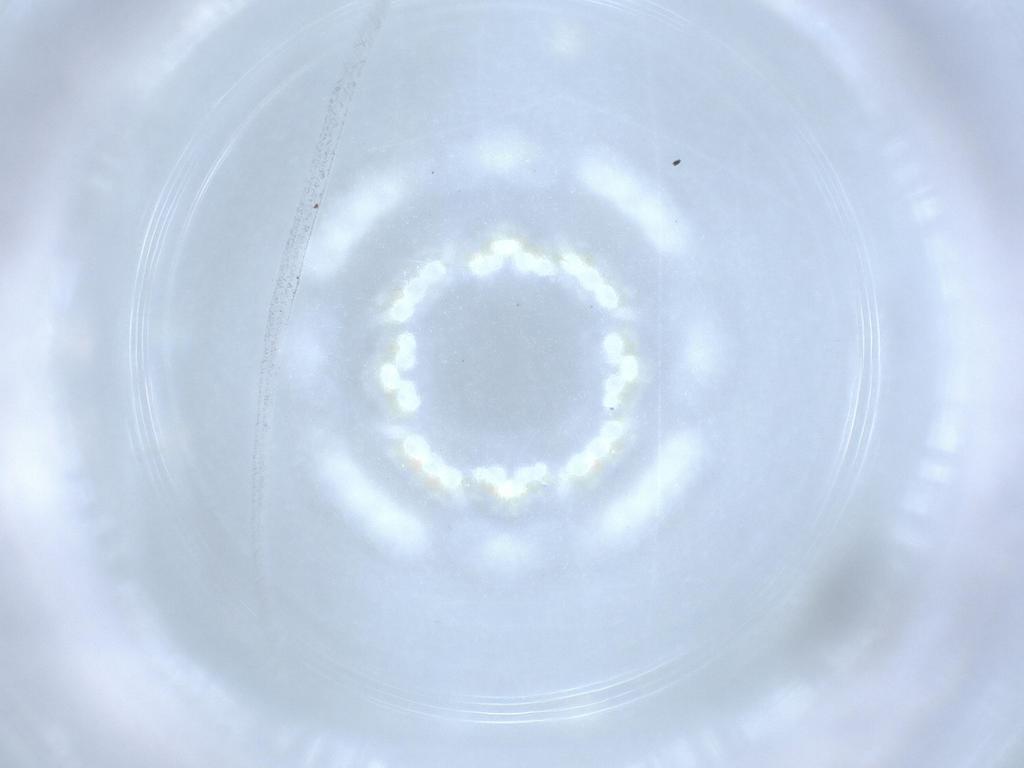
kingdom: Animalia
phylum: Arthropoda
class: Insecta
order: Hymenoptera
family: Scelionidae
